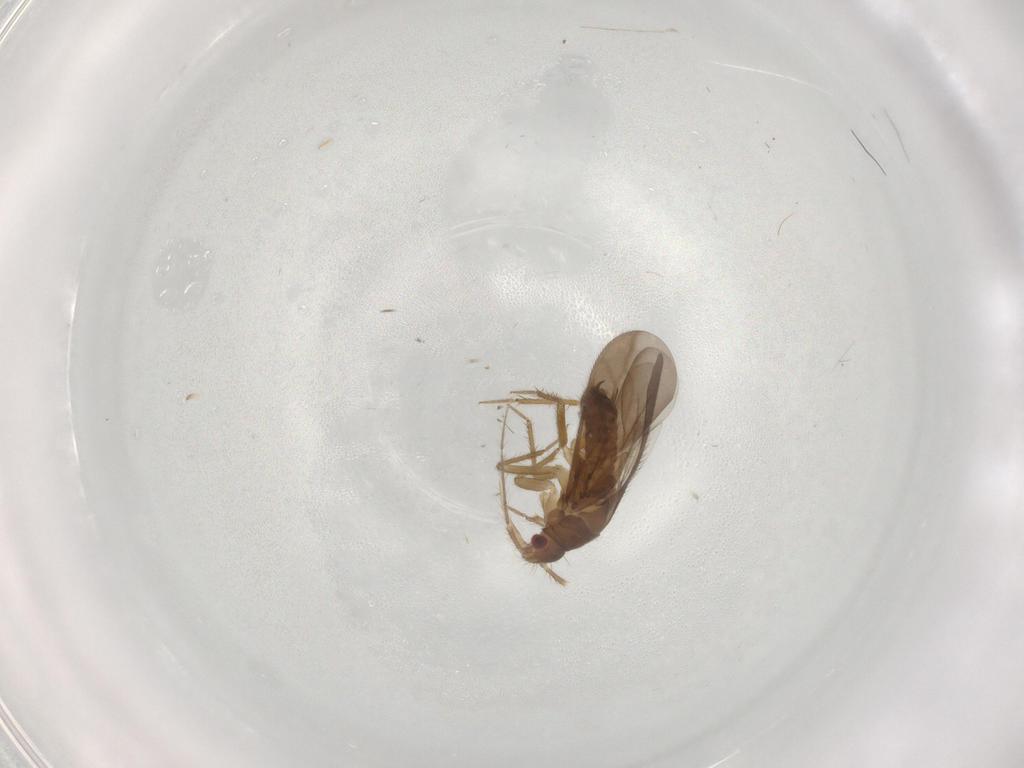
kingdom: Animalia
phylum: Arthropoda
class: Insecta
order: Hemiptera
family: Ceratocombidae
